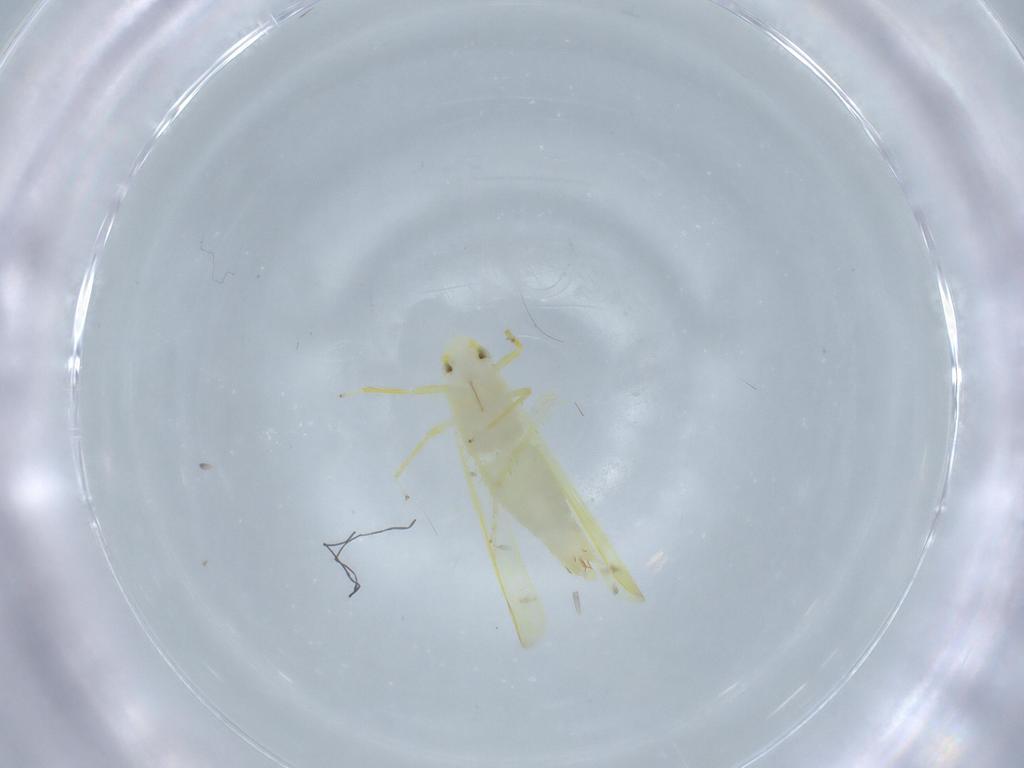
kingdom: Animalia
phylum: Arthropoda
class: Insecta
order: Hemiptera
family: Cicadellidae
